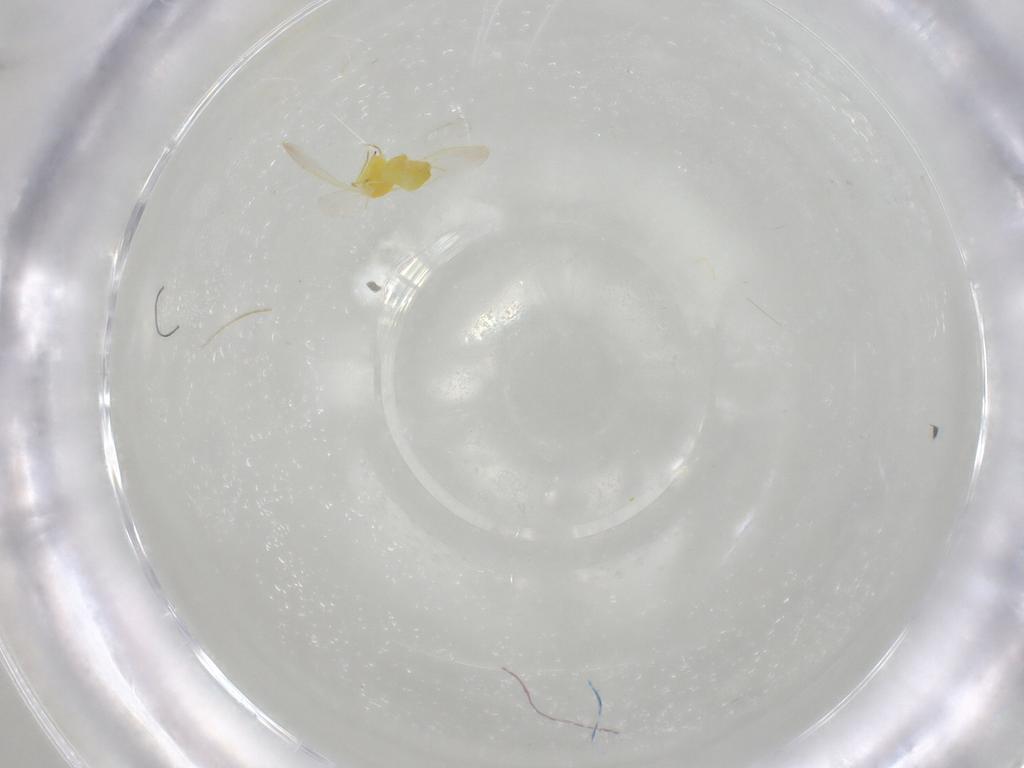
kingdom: Animalia
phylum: Arthropoda
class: Insecta
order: Hemiptera
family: Aleyrodidae
